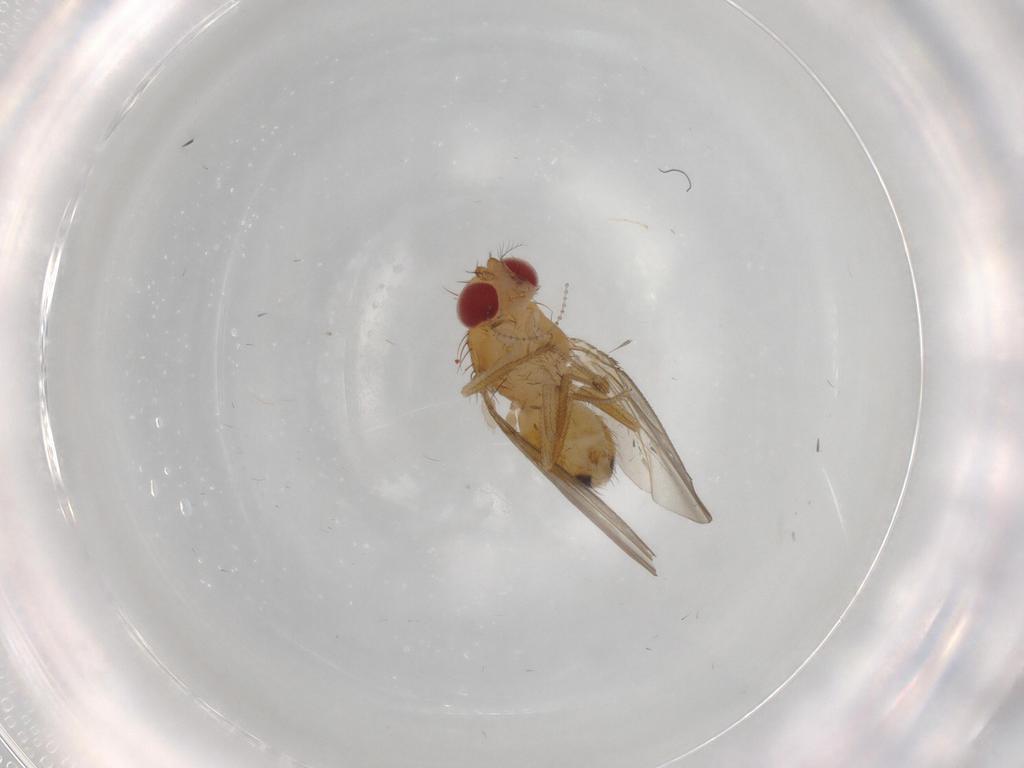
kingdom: Animalia
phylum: Arthropoda
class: Insecta
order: Diptera
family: Drosophilidae
